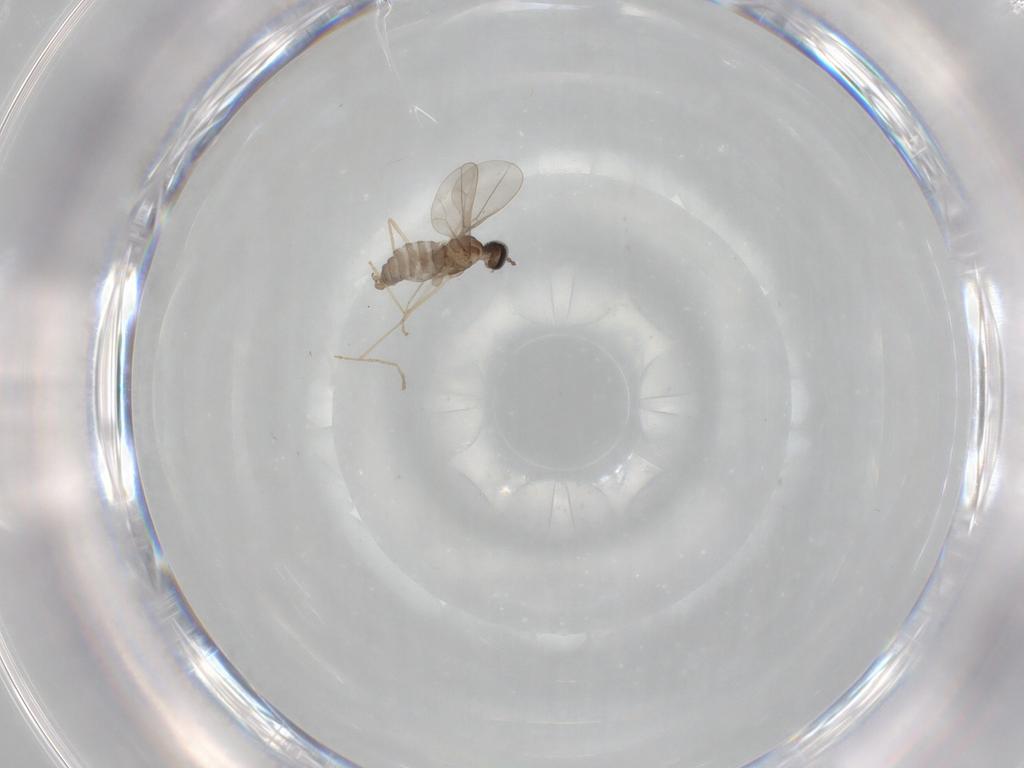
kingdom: Animalia
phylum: Arthropoda
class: Insecta
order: Diptera
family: Cecidomyiidae
